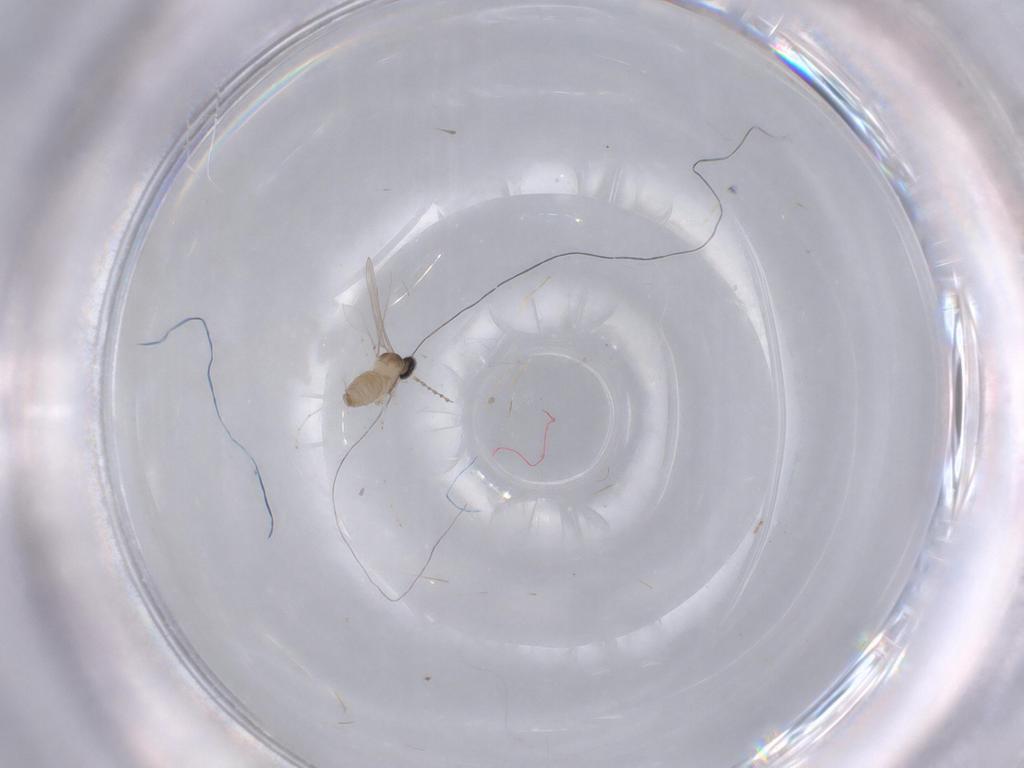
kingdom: Animalia
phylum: Arthropoda
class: Insecta
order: Diptera
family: Cecidomyiidae
